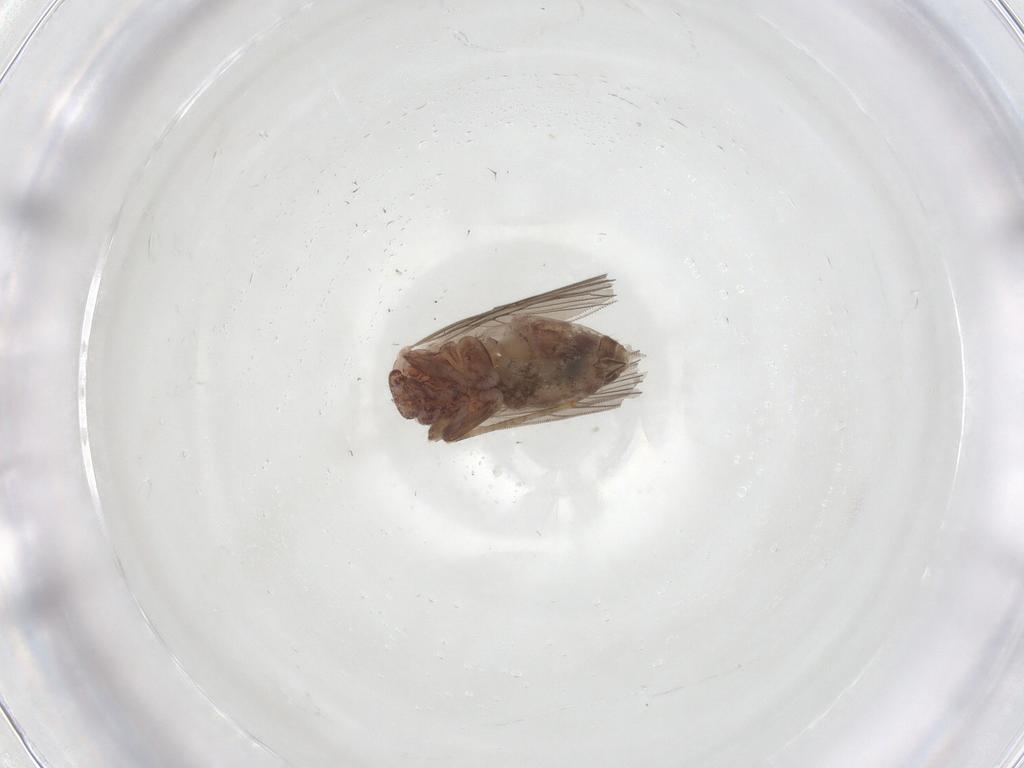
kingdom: Animalia
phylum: Arthropoda
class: Insecta
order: Psocodea
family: Lepidopsocidae
